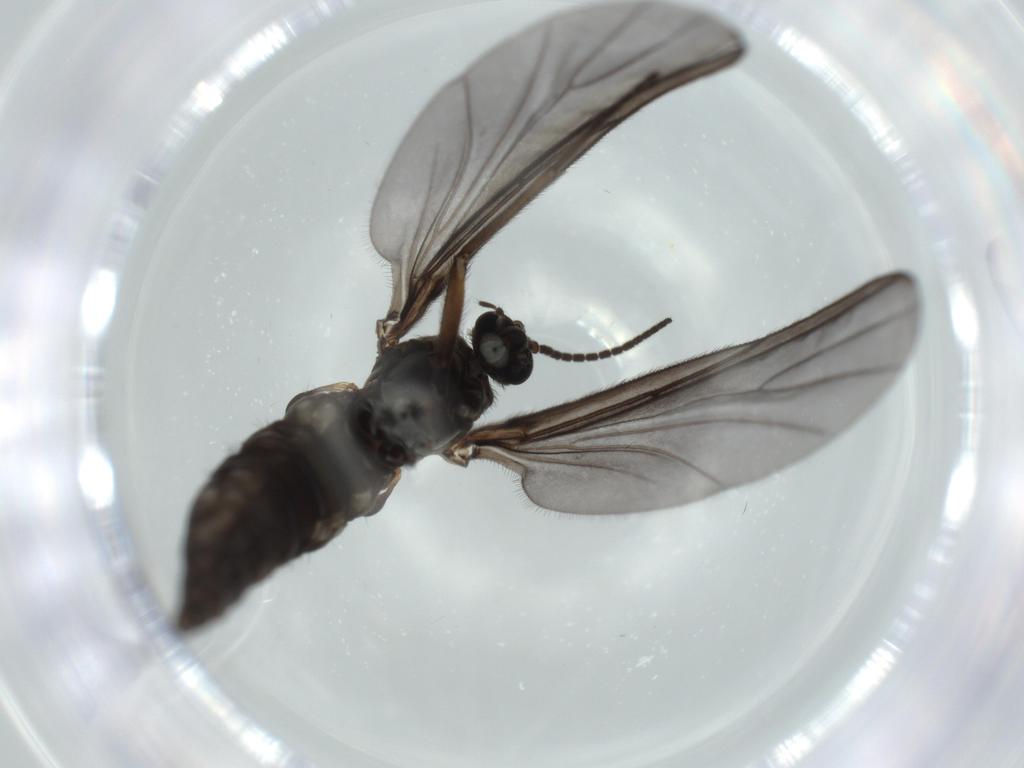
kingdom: Animalia
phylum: Arthropoda
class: Insecta
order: Diptera
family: Sciaridae
